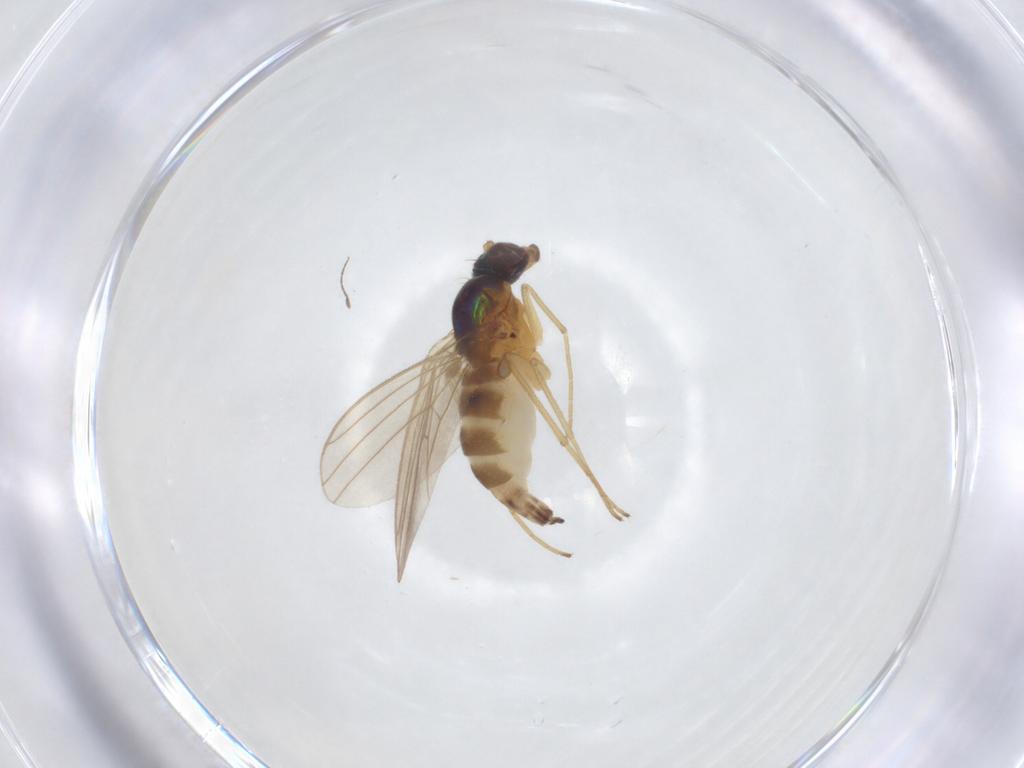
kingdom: Animalia
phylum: Arthropoda
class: Insecta
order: Diptera
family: Dolichopodidae
